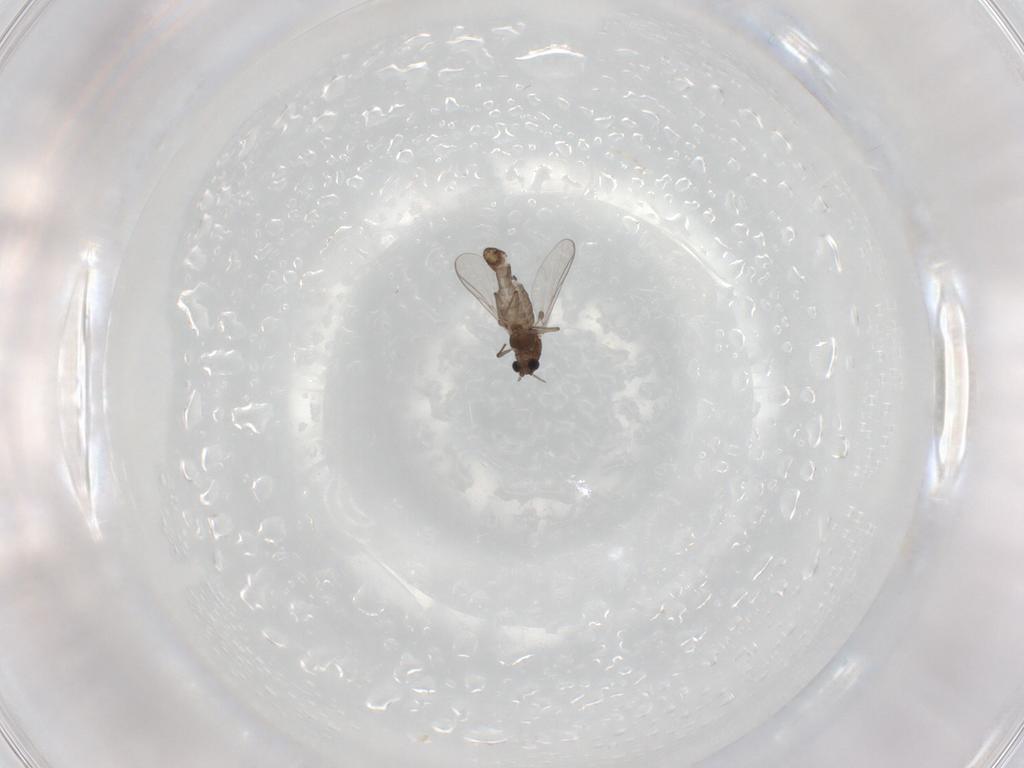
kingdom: Animalia
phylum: Arthropoda
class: Insecta
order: Diptera
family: Chironomidae
